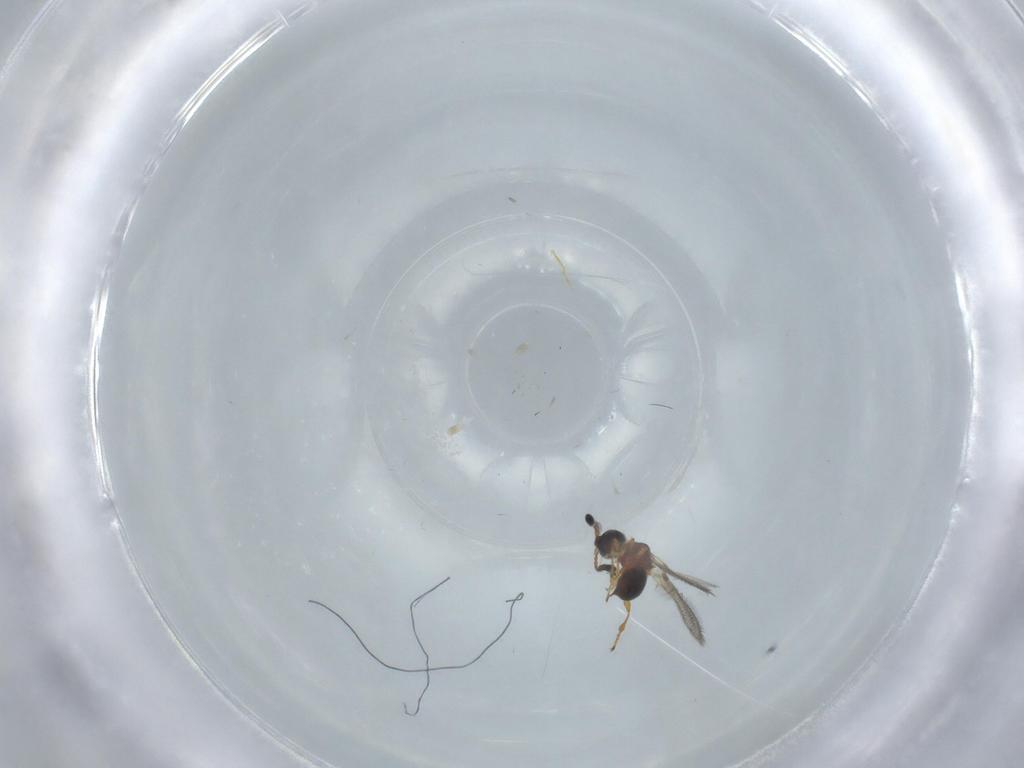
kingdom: Animalia
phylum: Arthropoda
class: Insecta
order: Hymenoptera
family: Diapriidae
